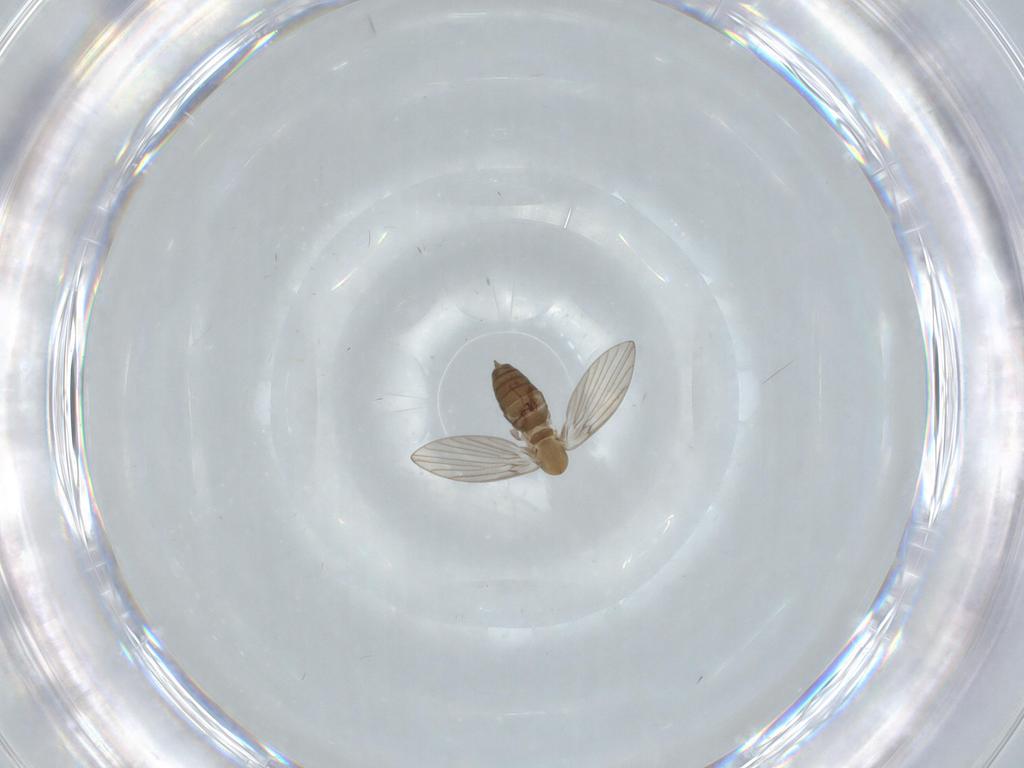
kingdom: Animalia
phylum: Arthropoda
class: Insecta
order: Diptera
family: Cecidomyiidae
